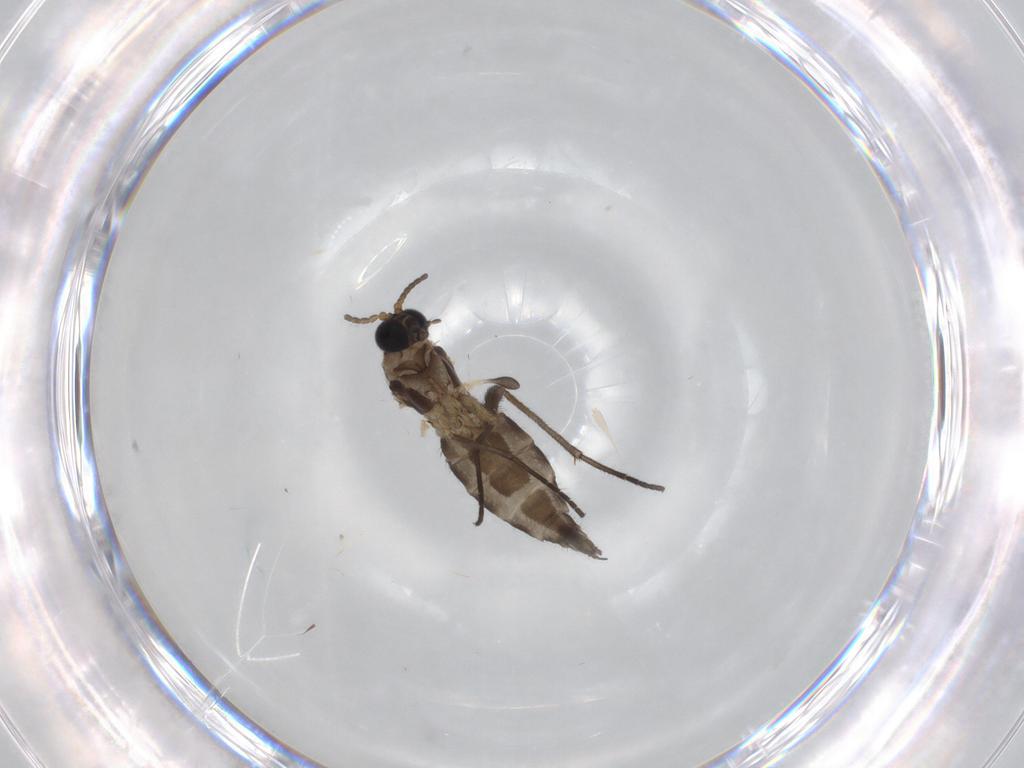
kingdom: Animalia
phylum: Arthropoda
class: Insecta
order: Diptera
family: Sciaridae
